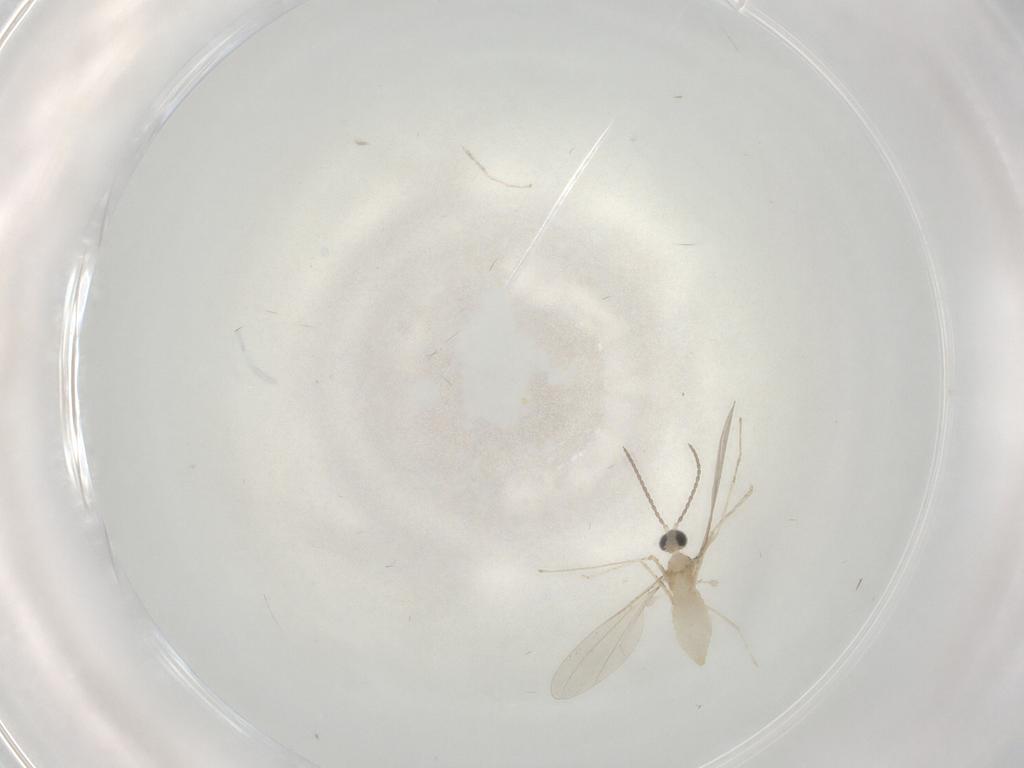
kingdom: Animalia
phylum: Arthropoda
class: Insecta
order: Diptera
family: Cecidomyiidae
